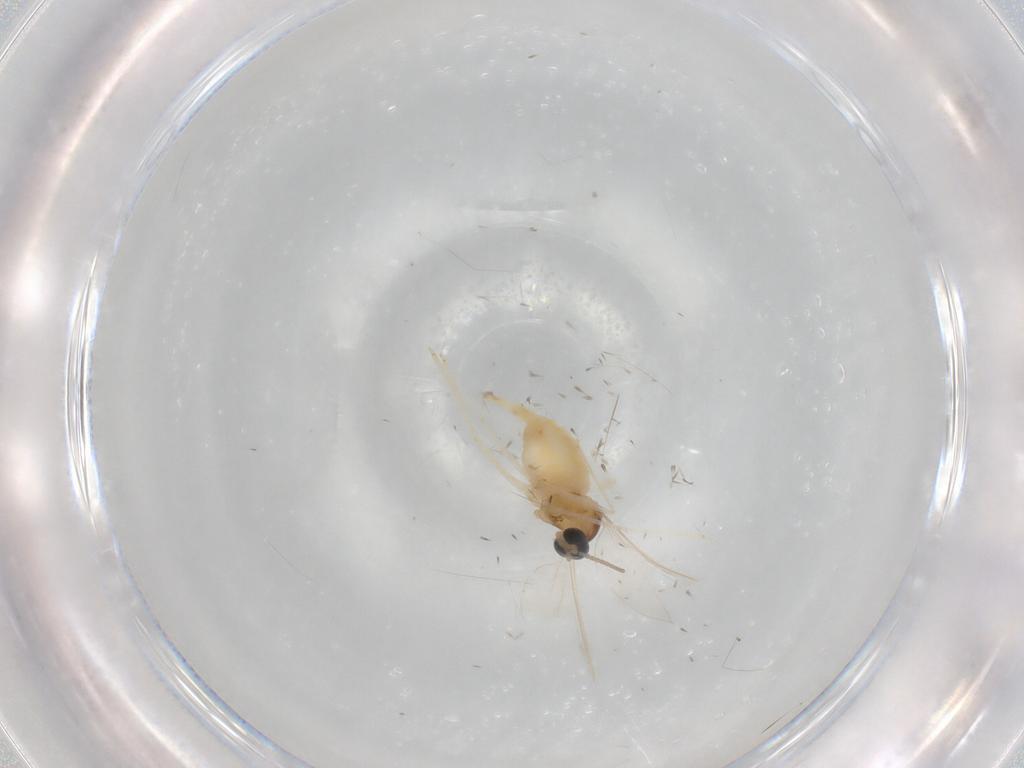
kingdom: Animalia
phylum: Arthropoda
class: Insecta
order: Diptera
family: Cecidomyiidae
